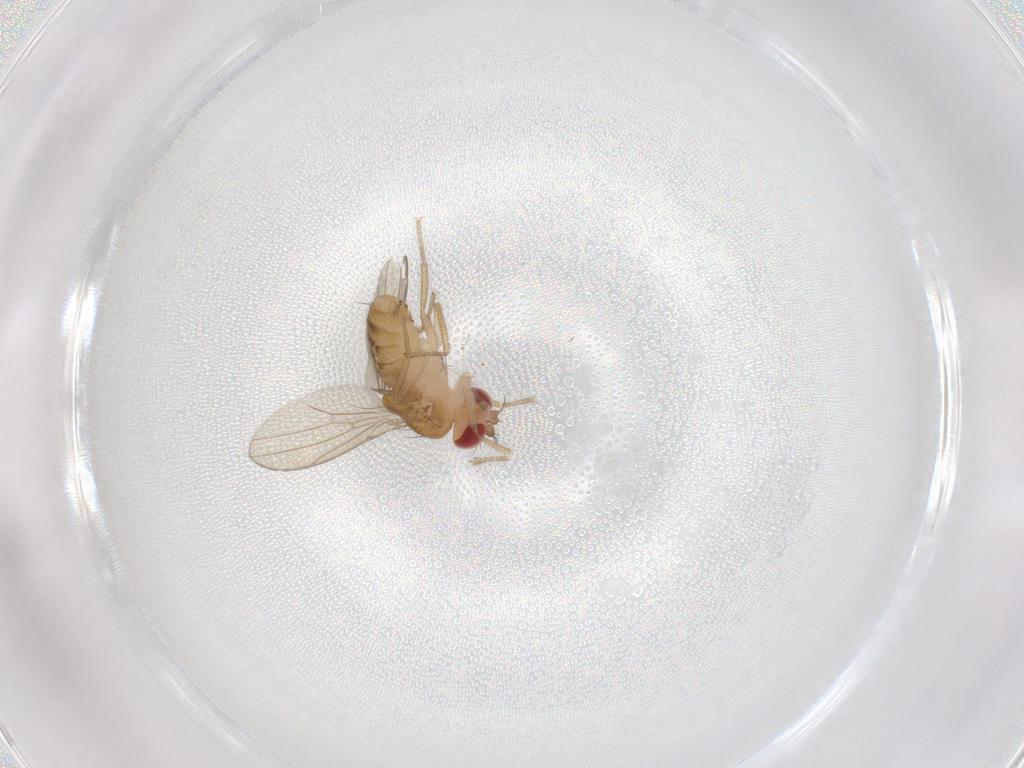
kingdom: Animalia
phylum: Arthropoda
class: Insecta
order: Diptera
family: Drosophilidae
